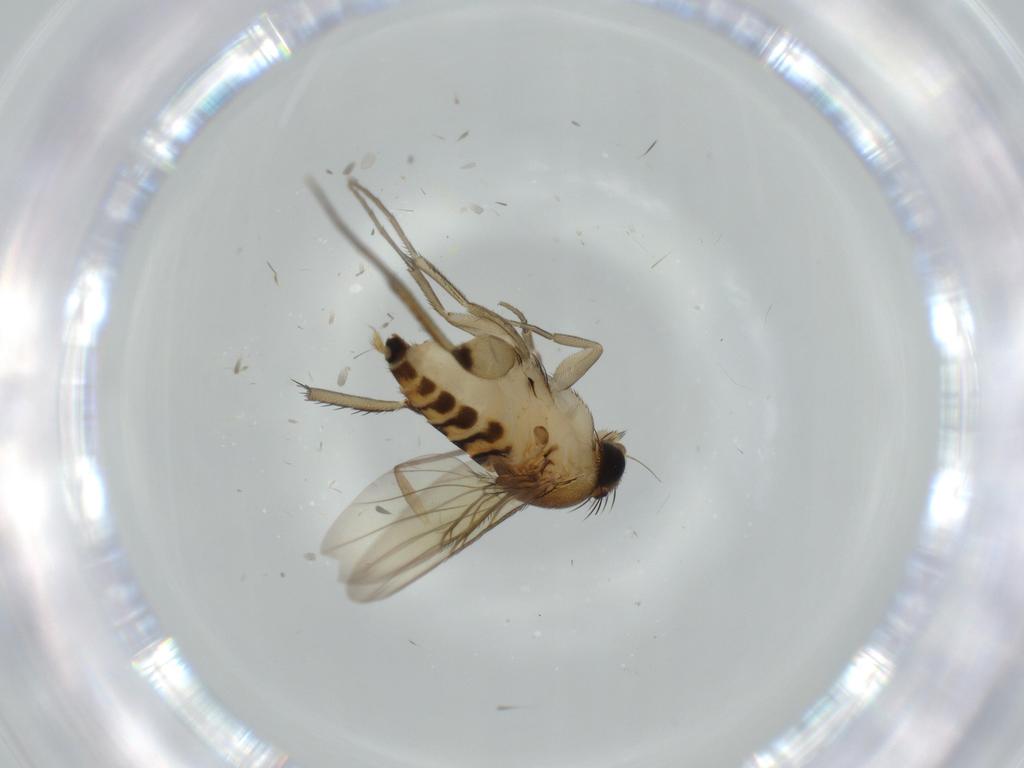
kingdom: Animalia
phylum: Arthropoda
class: Insecta
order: Diptera
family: Phoridae
